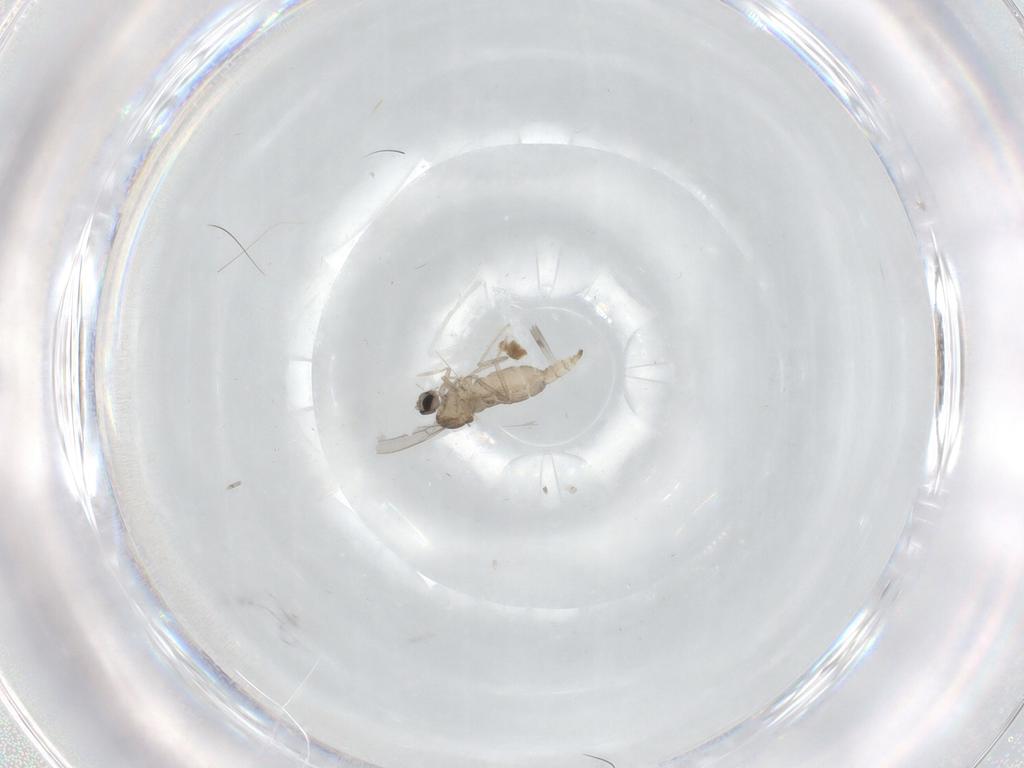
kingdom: Animalia
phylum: Arthropoda
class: Insecta
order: Diptera
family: Cecidomyiidae
